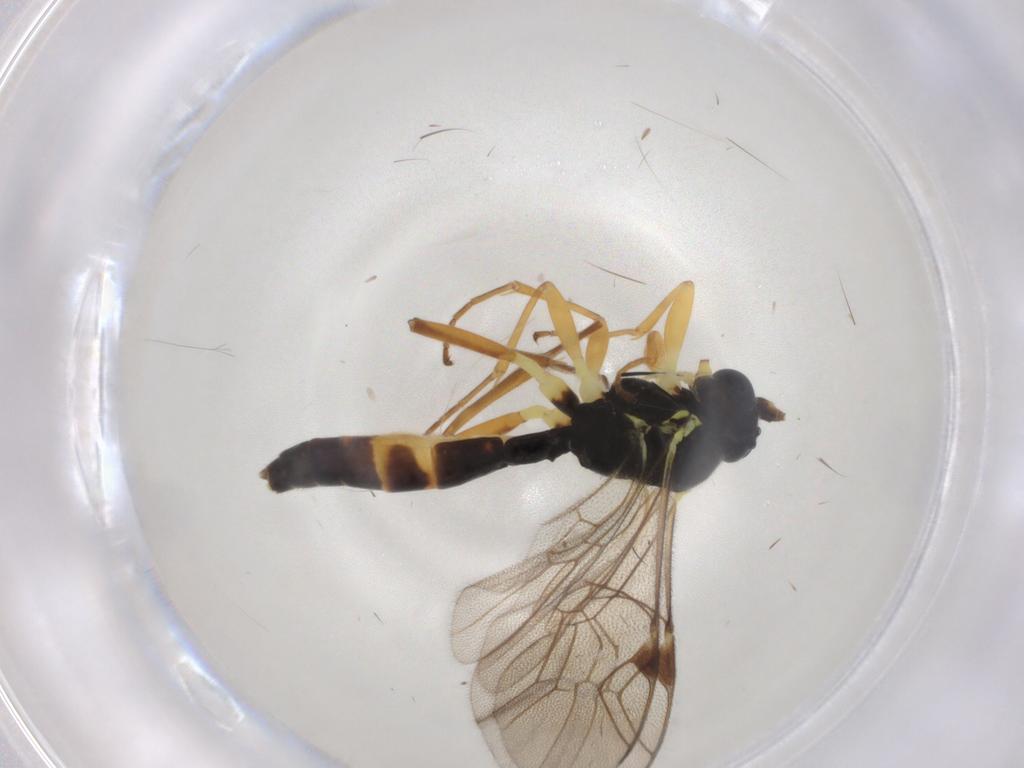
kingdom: Animalia
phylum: Arthropoda
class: Insecta
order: Hymenoptera
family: Ichneumonidae
